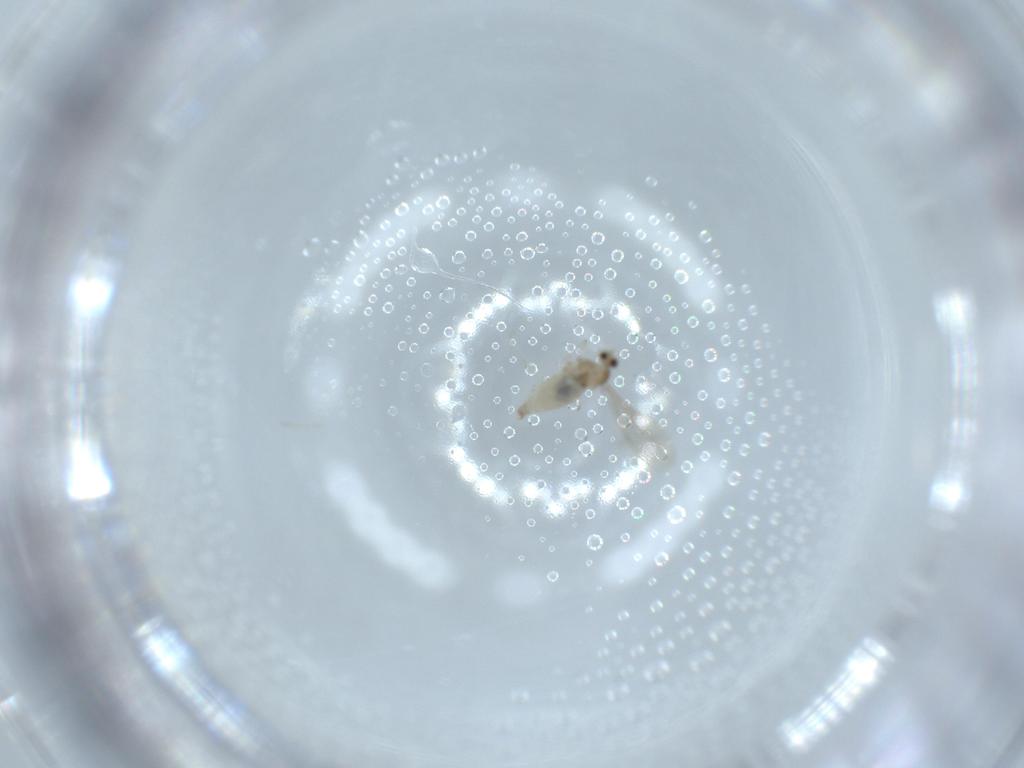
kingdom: Animalia
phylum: Arthropoda
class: Insecta
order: Diptera
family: Cecidomyiidae
